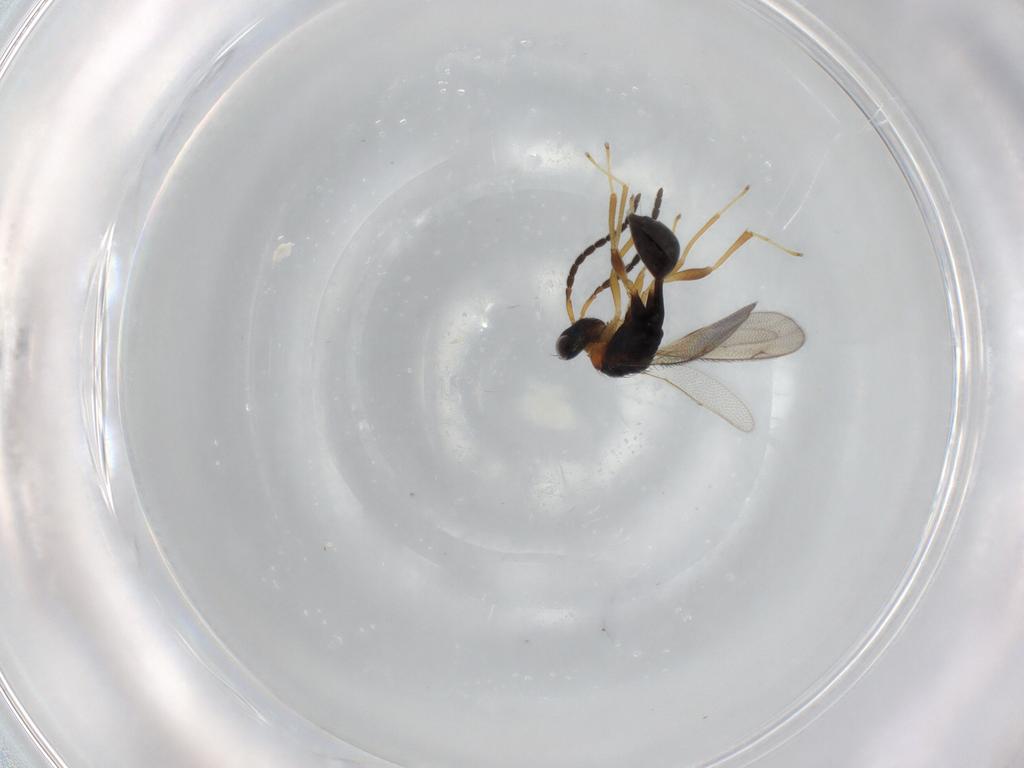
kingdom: Animalia
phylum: Arthropoda
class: Insecta
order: Hymenoptera
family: Diparidae
